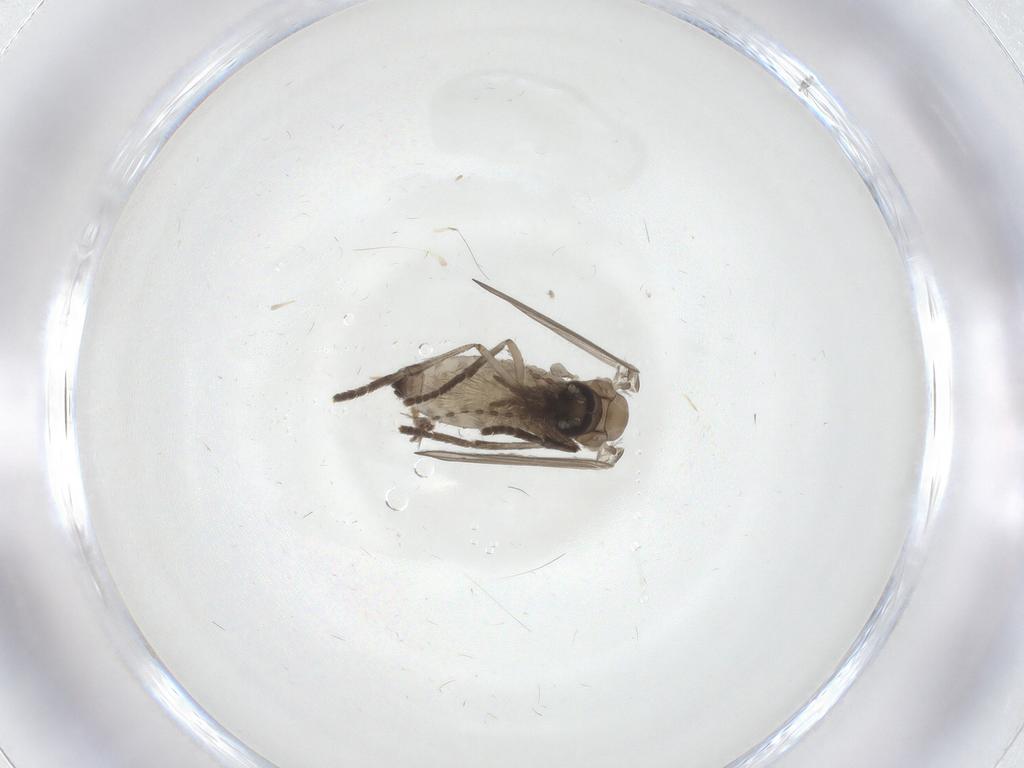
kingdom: Animalia
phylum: Arthropoda
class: Insecta
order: Diptera
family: Psychodidae
